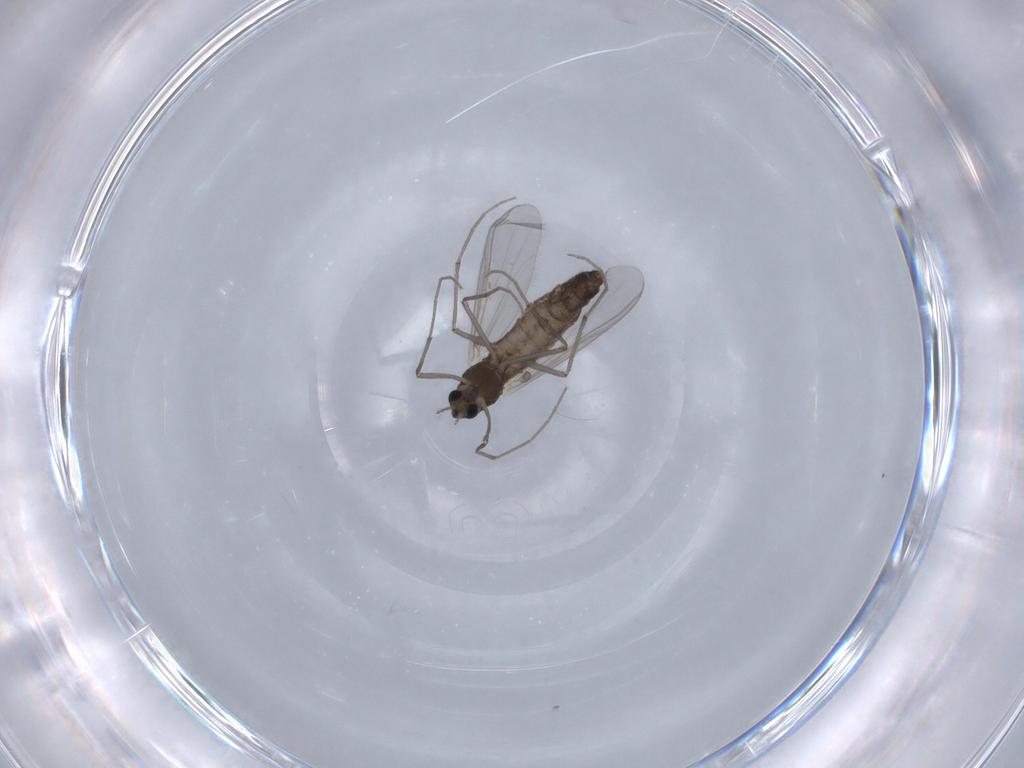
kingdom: Animalia
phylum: Arthropoda
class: Insecta
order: Diptera
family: Chironomidae
